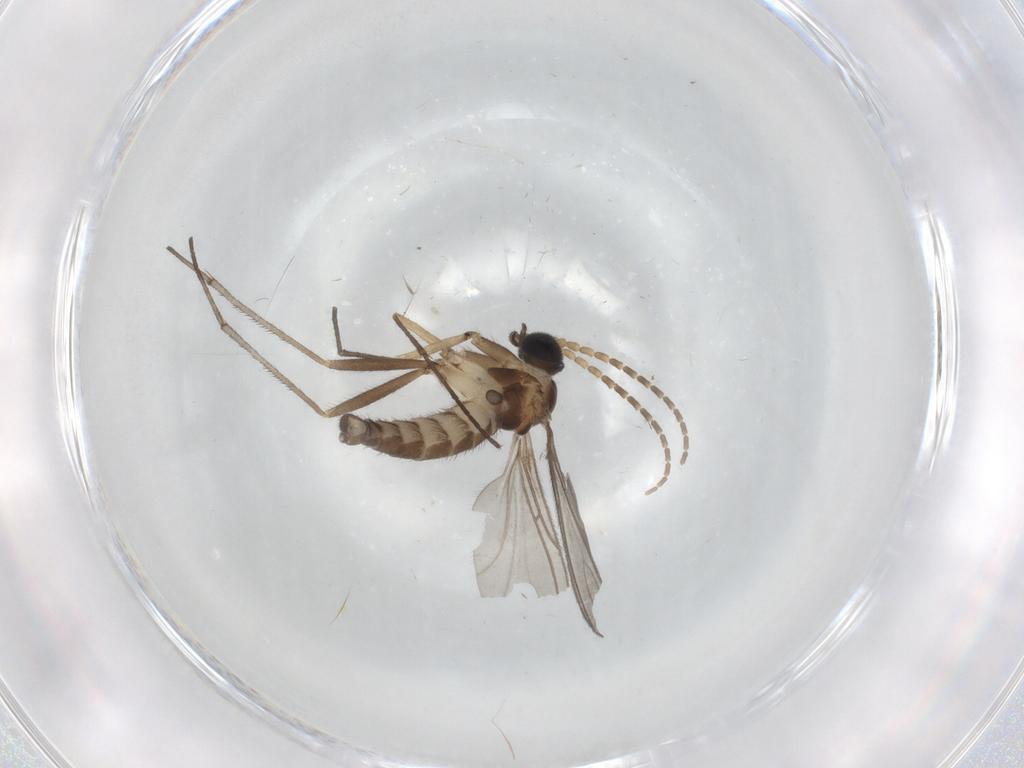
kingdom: Animalia
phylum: Arthropoda
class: Insecta
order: Diptera
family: Sciaridae
